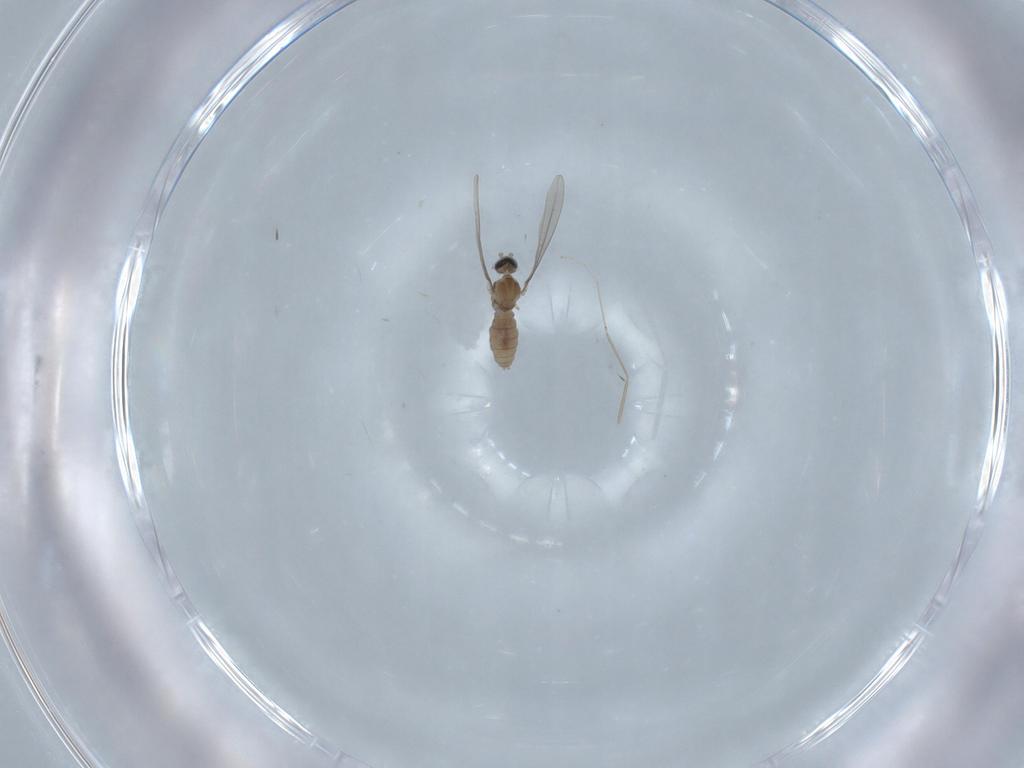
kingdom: Animalia
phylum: Arthropoda
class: Insecta
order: Diptera
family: Cecidomyiidae
